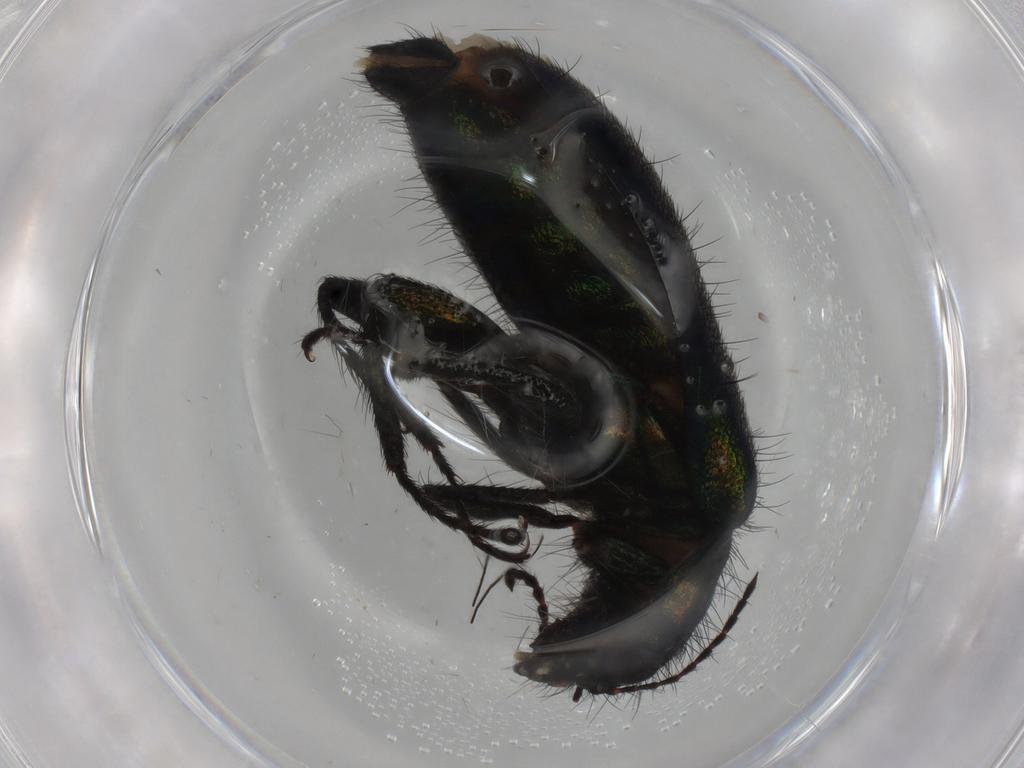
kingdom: Animalia
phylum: Arthropoda
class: Insecta
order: Coleoptera
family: Melyridae
